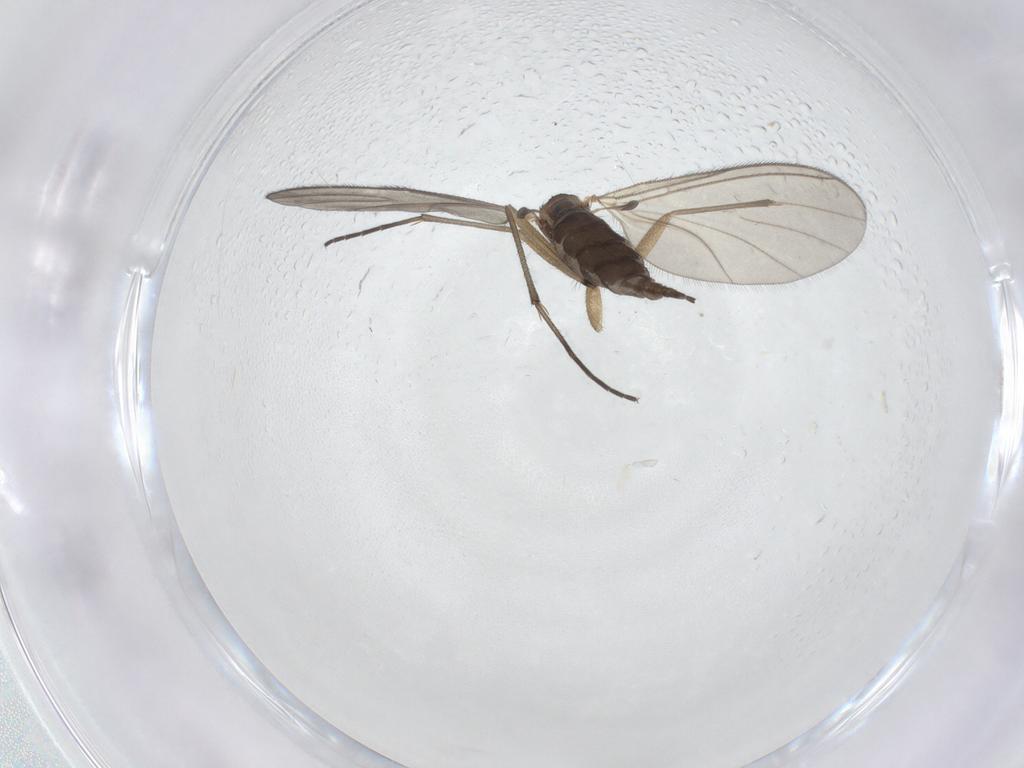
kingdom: Animalia
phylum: Arthropoda
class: Insecta
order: Diptera
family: Sciaridae
